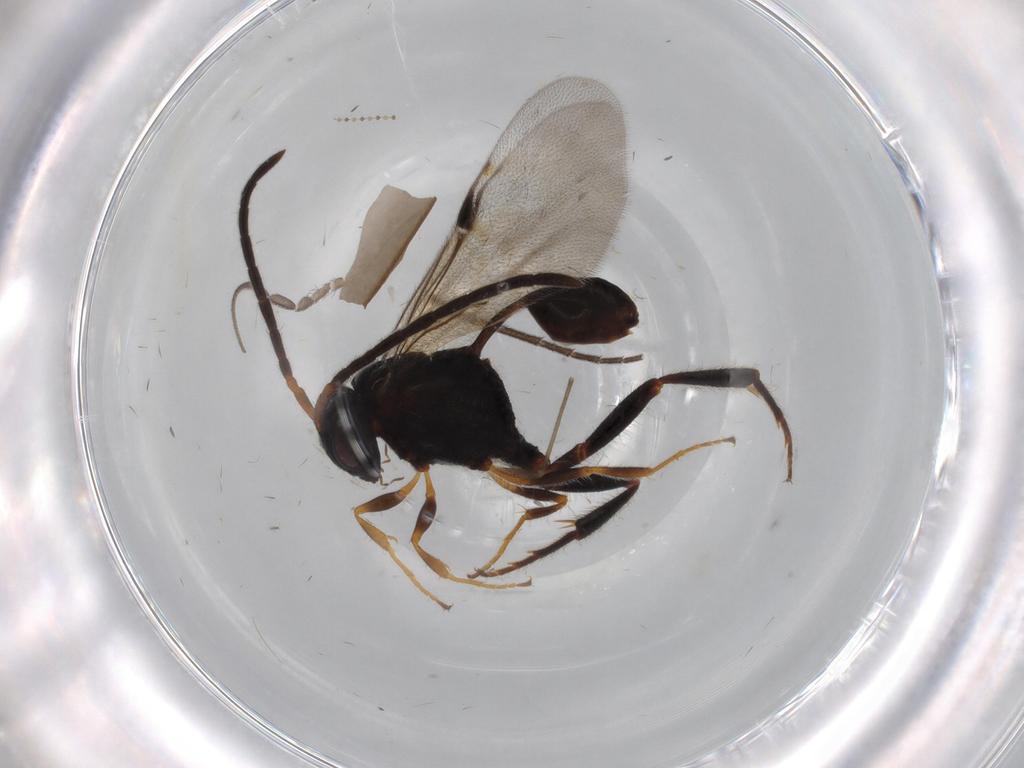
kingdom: Animalia
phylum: Arthropoda
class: Insecta
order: Hymenoptera
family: Evaniidae
